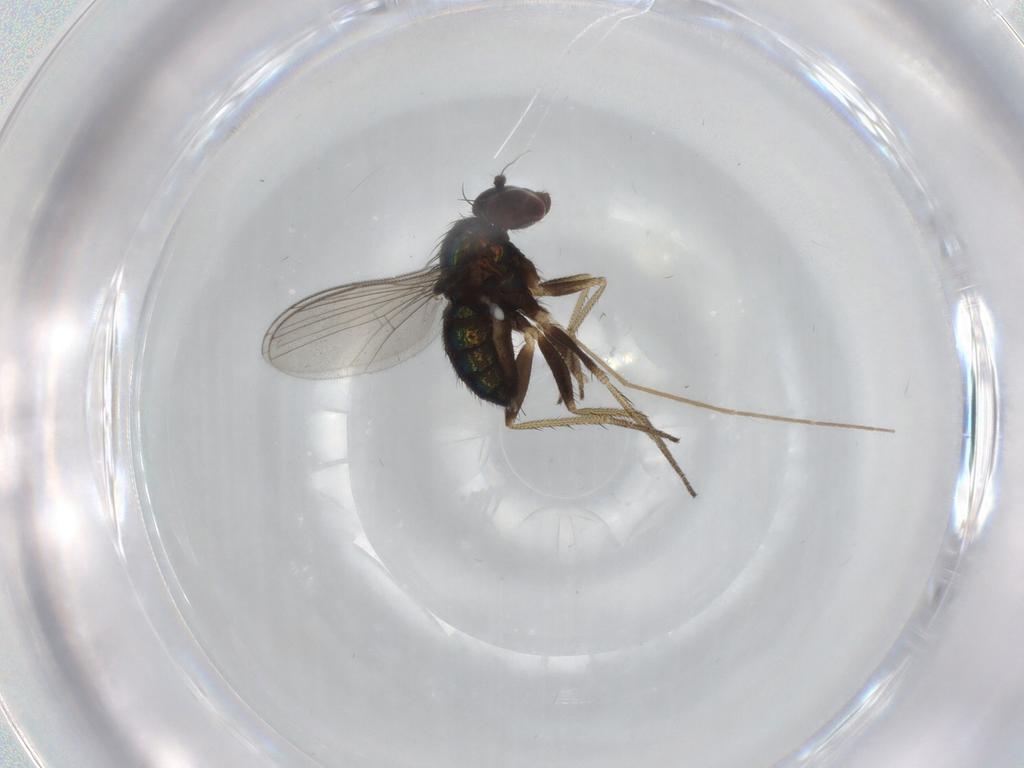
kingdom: Animalia
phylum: Arthropoda
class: Insecta
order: Diptera
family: Dolichopodidae
